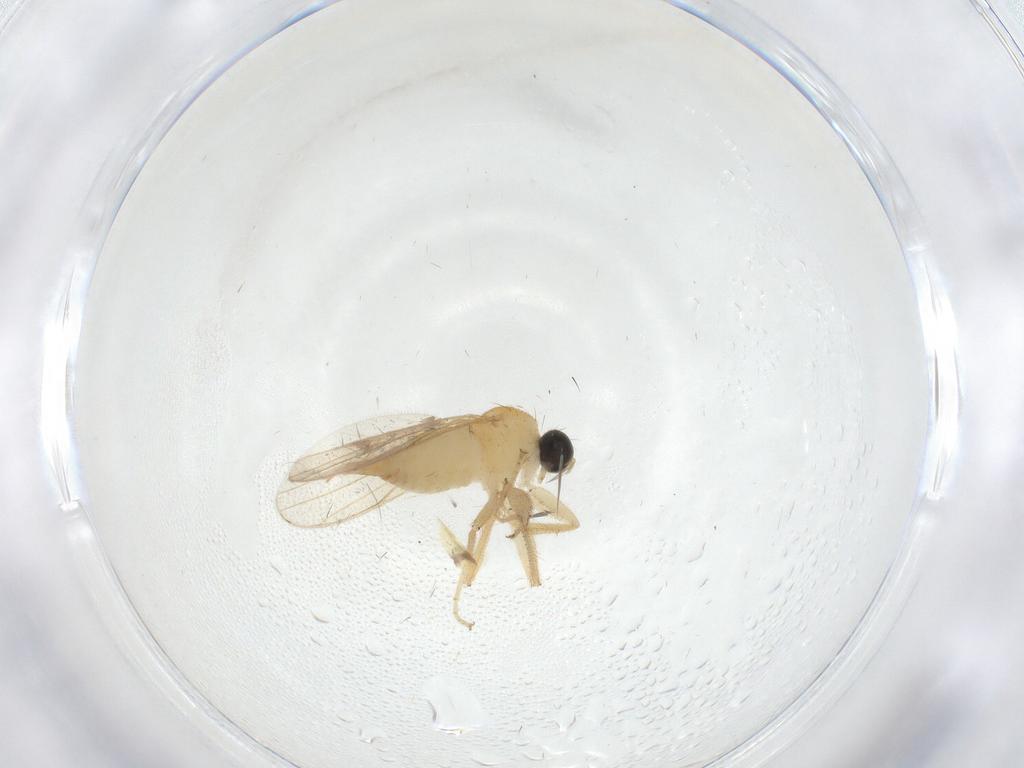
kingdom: Animalia
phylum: Arthropoda
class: Insecta
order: Diptera
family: Hybotidae
